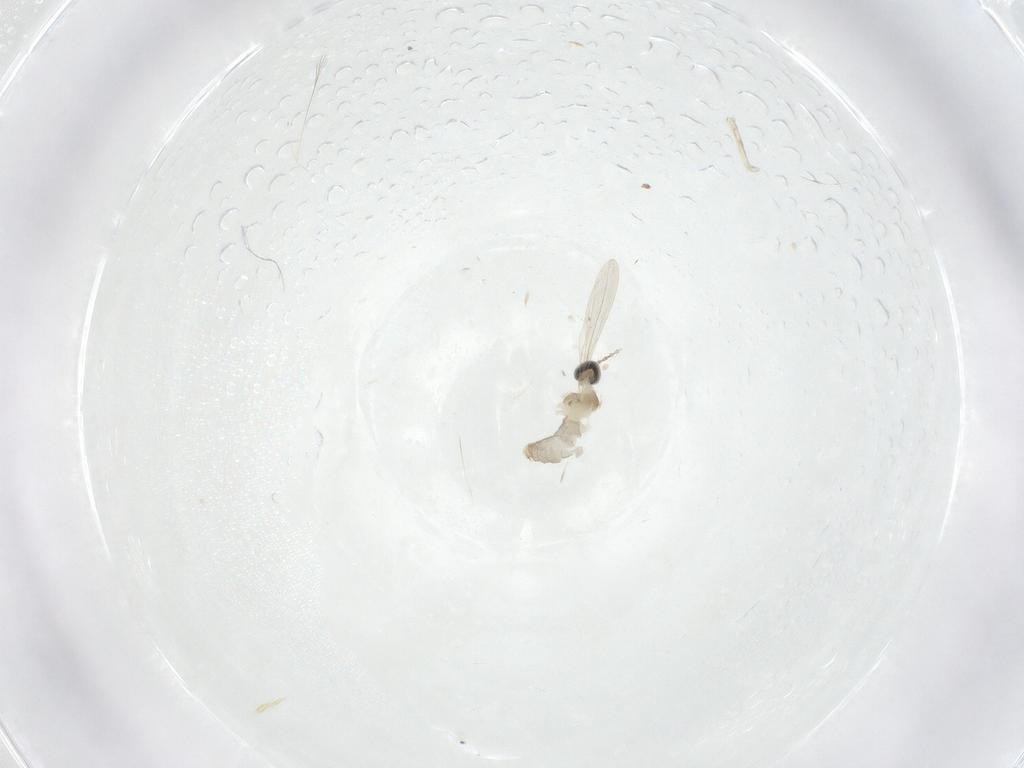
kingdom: Animalia
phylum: Arthropoda
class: Insecta
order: Diptera
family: Cecidomyiidae
